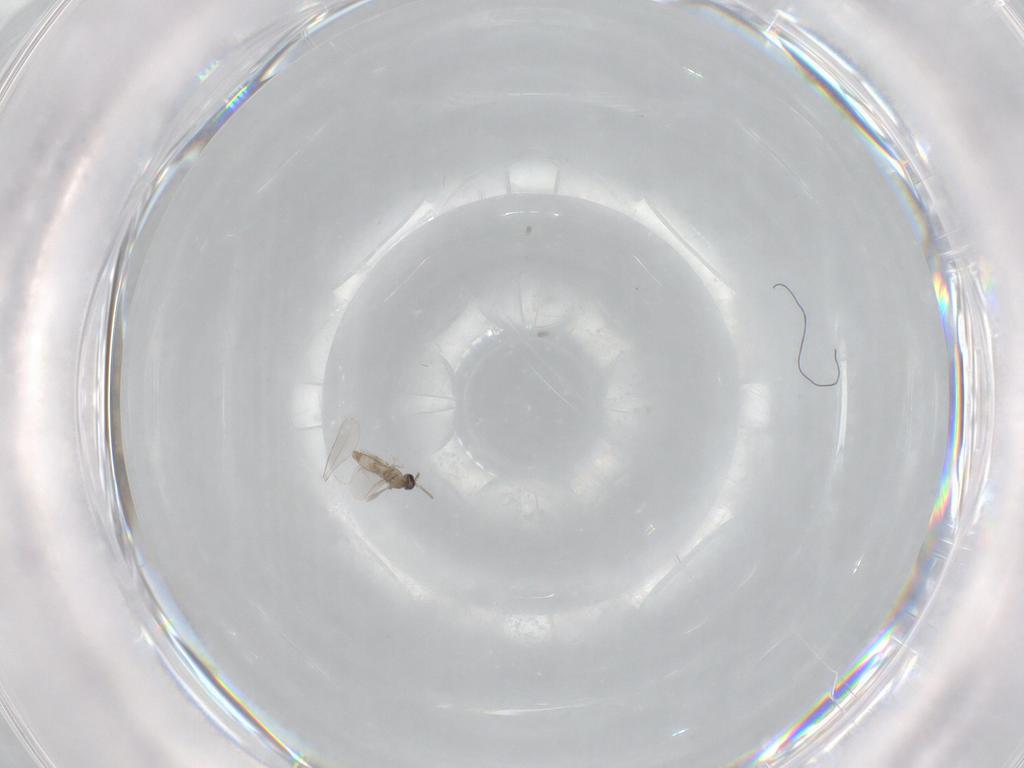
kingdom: Animalia
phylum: Arthropoda
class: Insecta
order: Diptera
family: Cecidomyiidae
